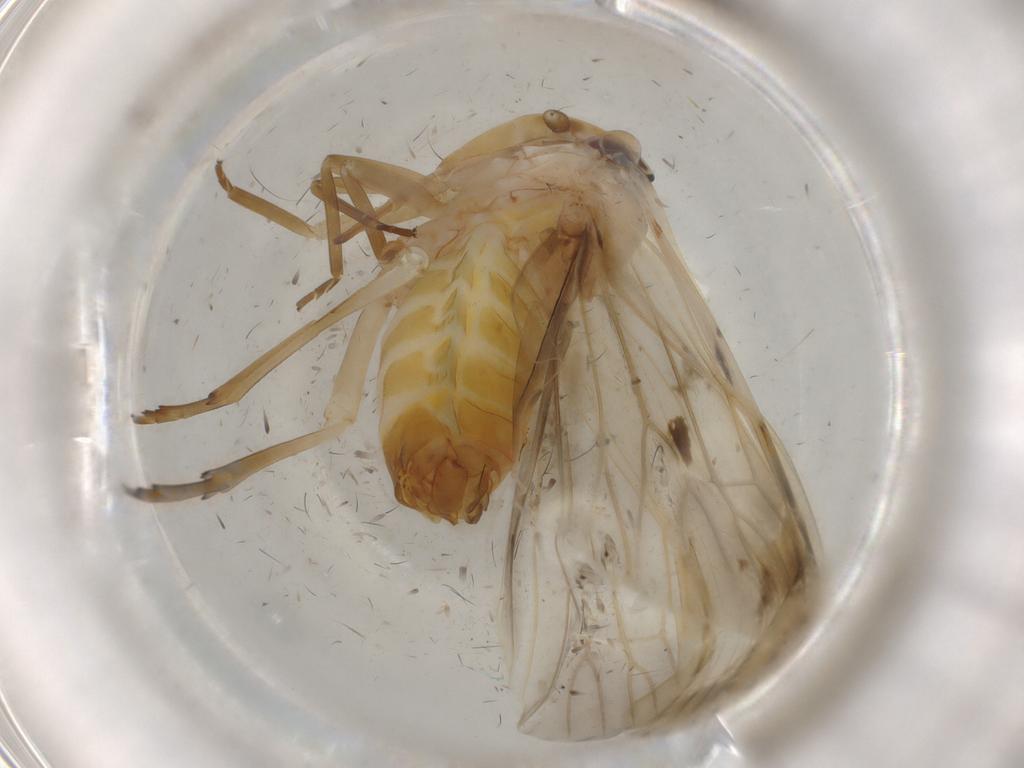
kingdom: Animalia
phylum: Arthropoda
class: Insecta
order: Hemiptera
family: Achilidae
